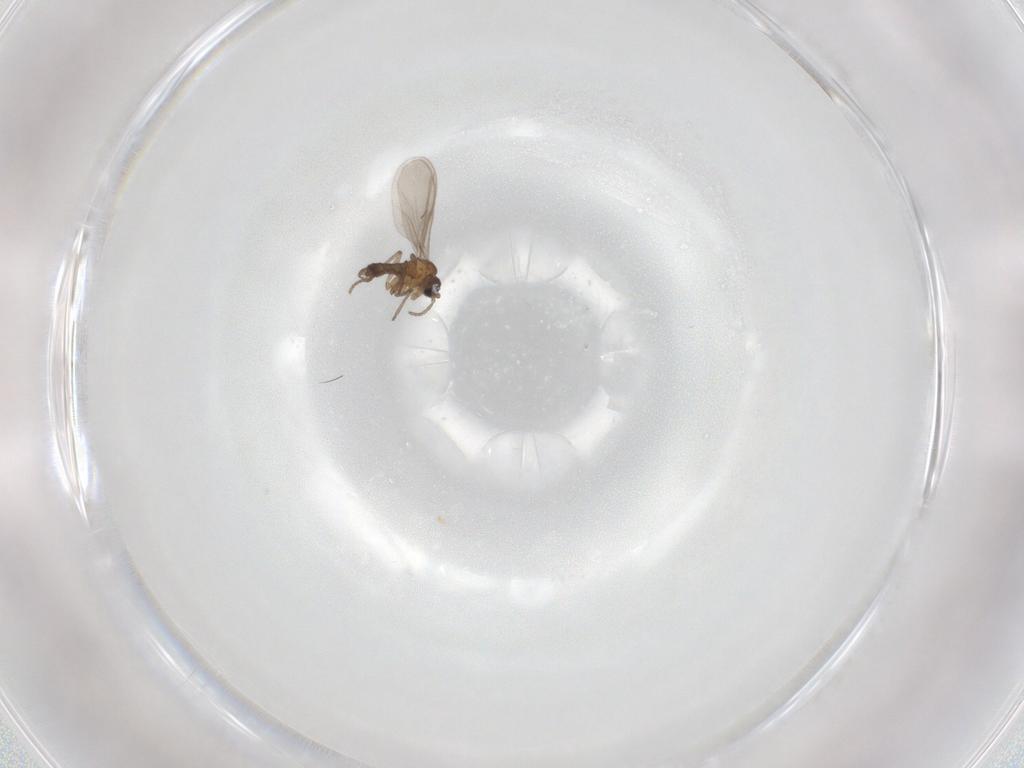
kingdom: Animalia
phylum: Arthropoda
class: Insecta
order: Diptera
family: Sciaridae
